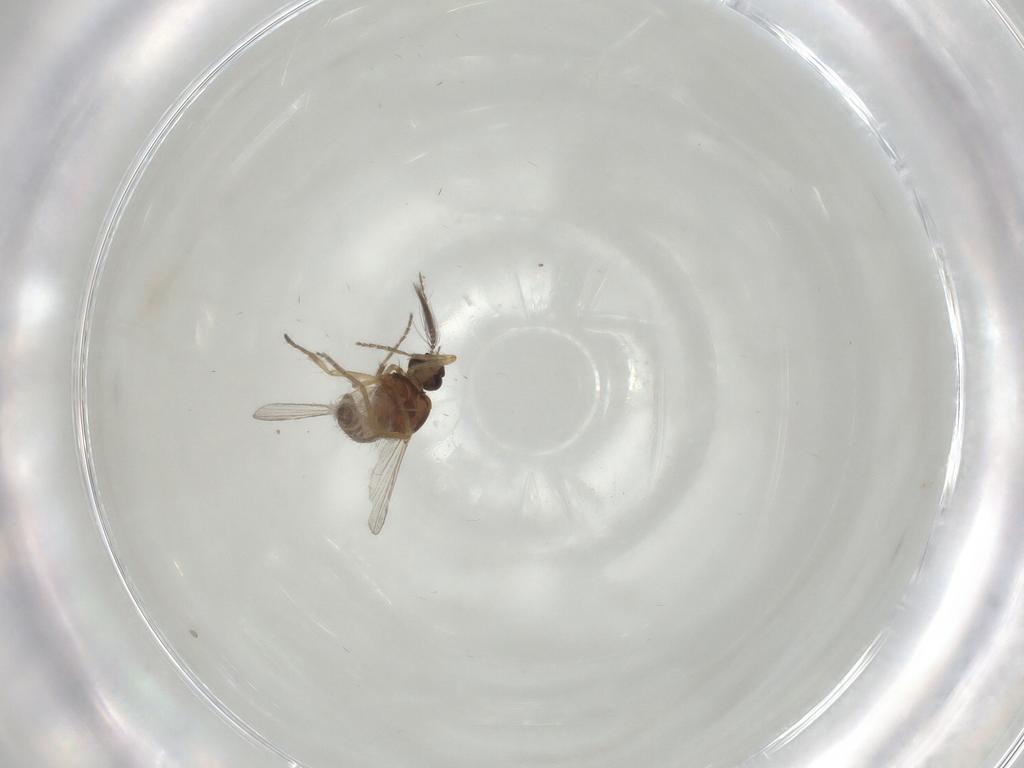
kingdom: Animalia
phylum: Arthropoda
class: Insecta
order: Diptera
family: Ceratopogonidae
